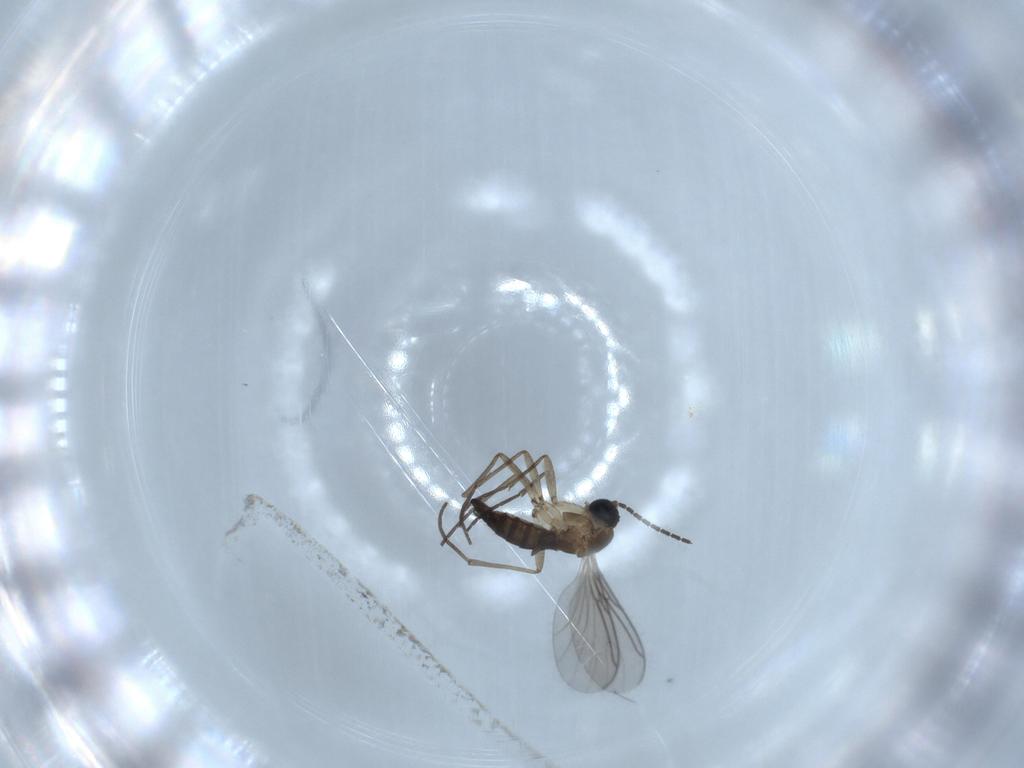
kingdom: Animalia
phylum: Arthropoda
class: Insecta
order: Diptera
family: Sciaridae
